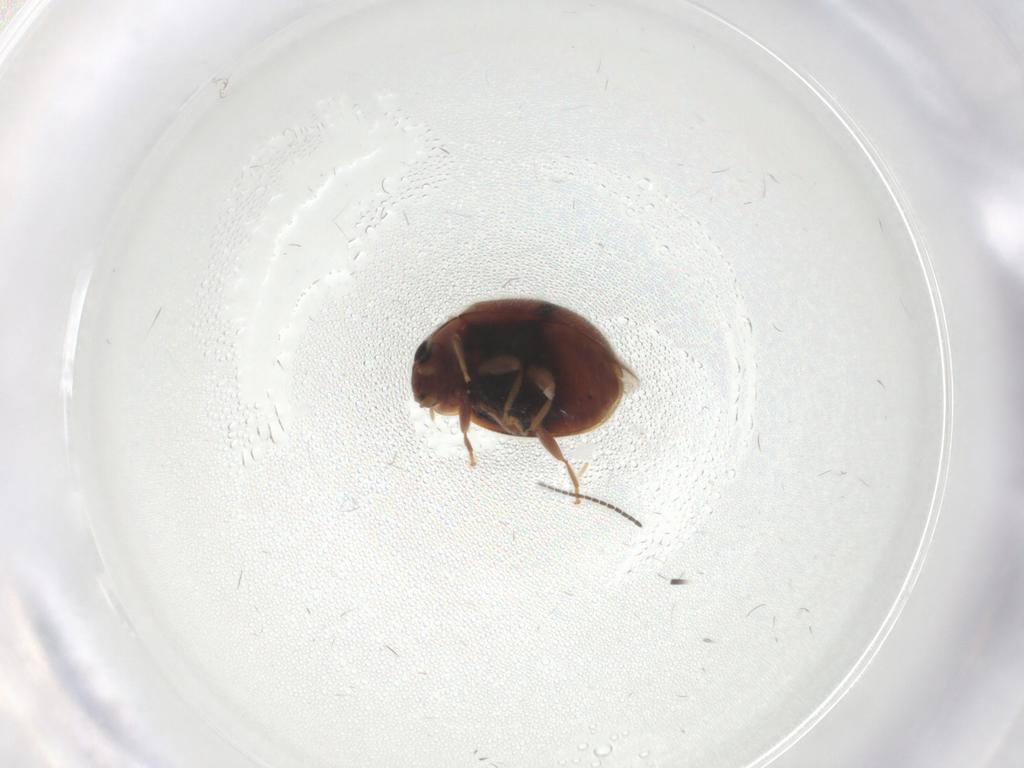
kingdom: Animalia
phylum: Arthropoda
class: Insecta
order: Coleoptera
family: Coccinellidae
